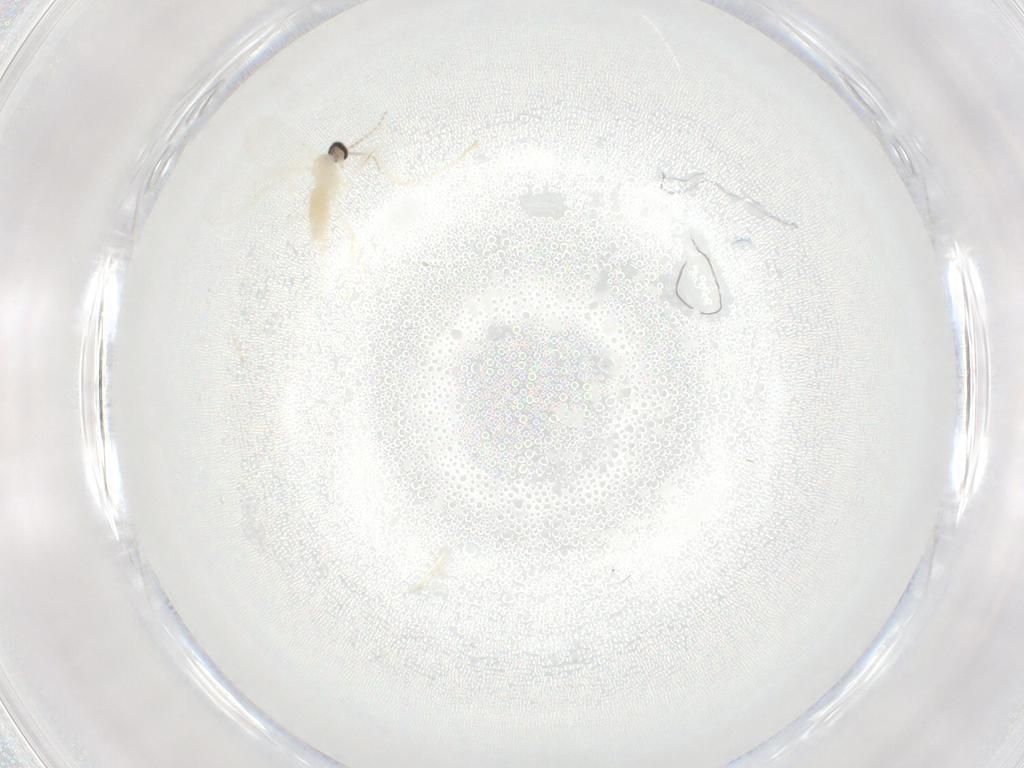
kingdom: Animalia
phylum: Arthropoda
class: Insecta
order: Diptera
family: Cecidomyiidae
